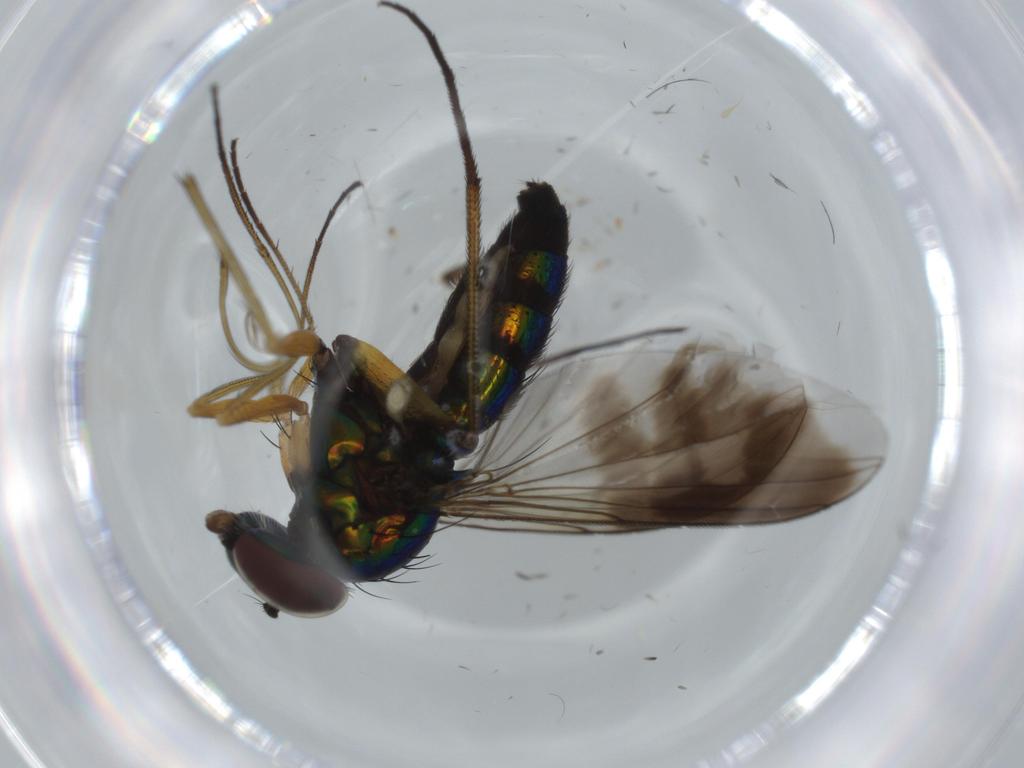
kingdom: Animalia
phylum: Arthropoda
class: Insecta
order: Diptera
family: Dolichopodidae
